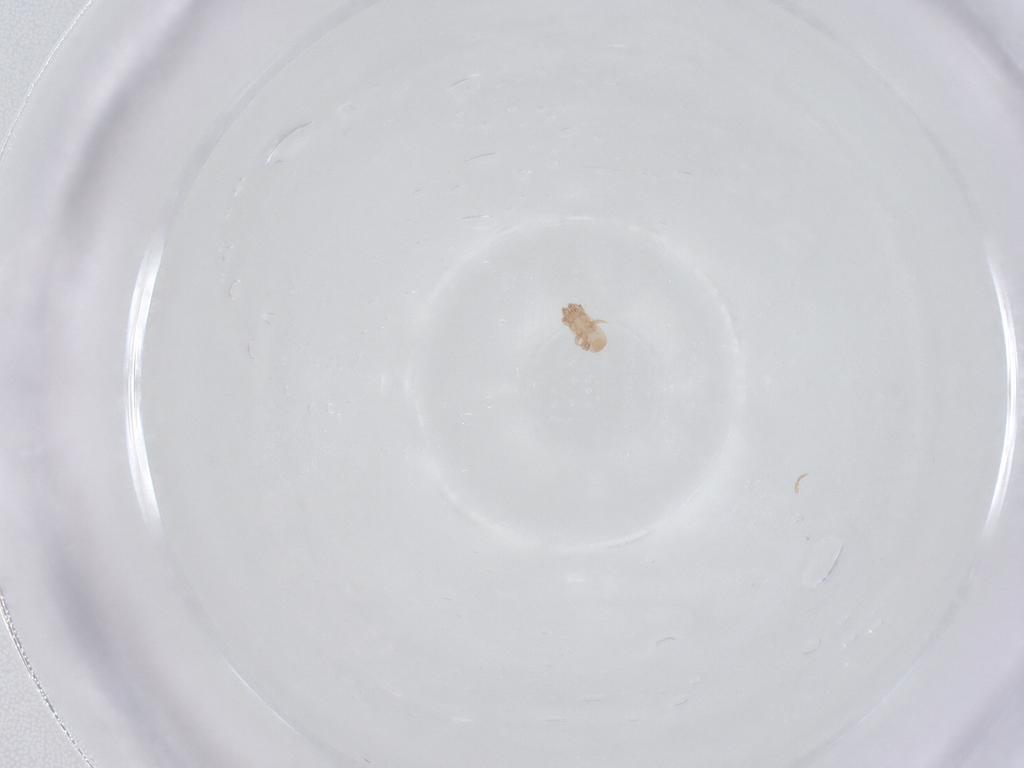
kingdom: Animalia
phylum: Arthropoda
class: Arachnida
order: Mesostigmata
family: Digamasellidae
